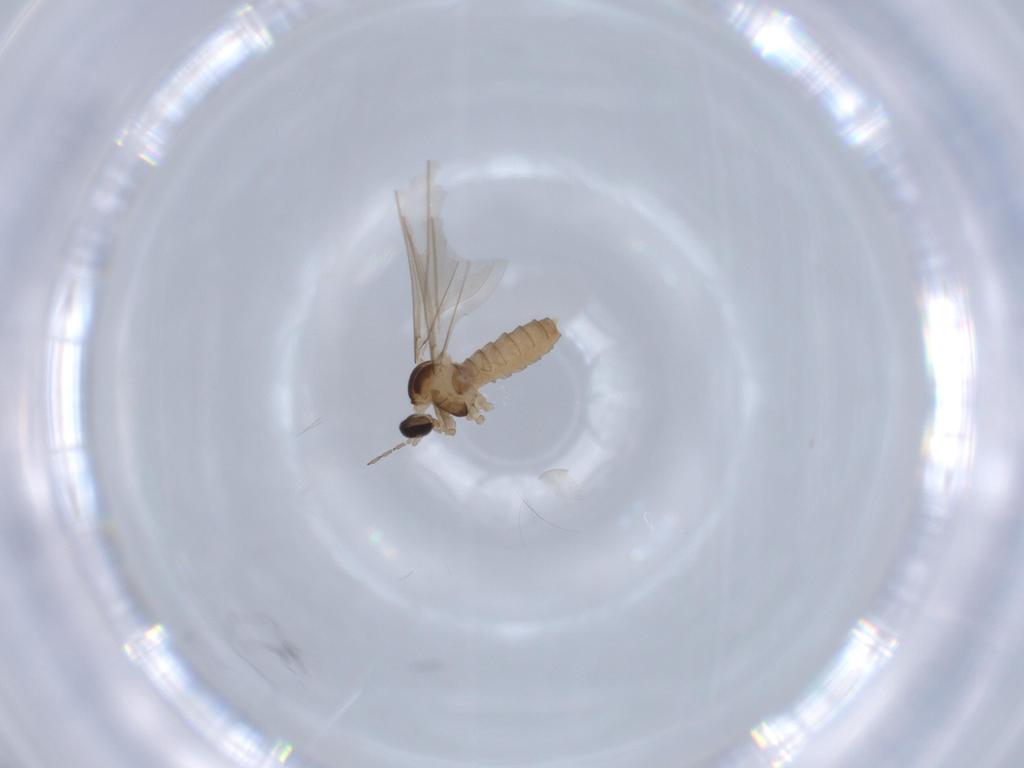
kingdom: Animalia
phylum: Arthropoda
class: Insecta
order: Diptera
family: Cecidomyiidae
